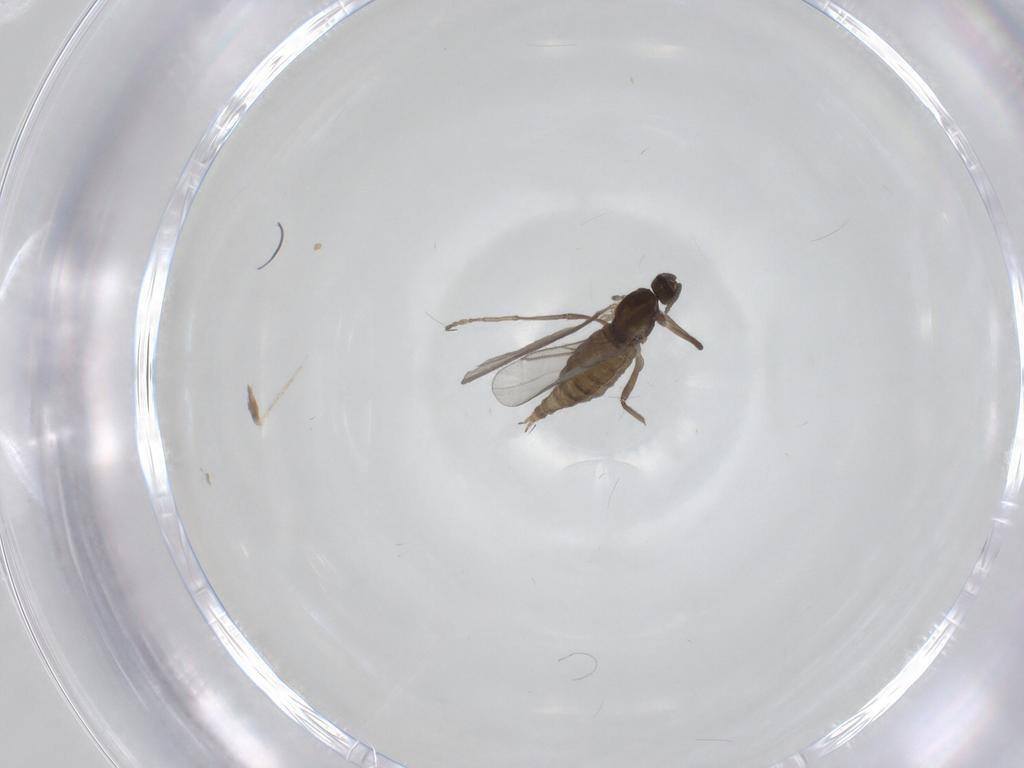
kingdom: Animalia
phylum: Arthropoda
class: Insecta
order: Diptera
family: Cecidomyiidae
